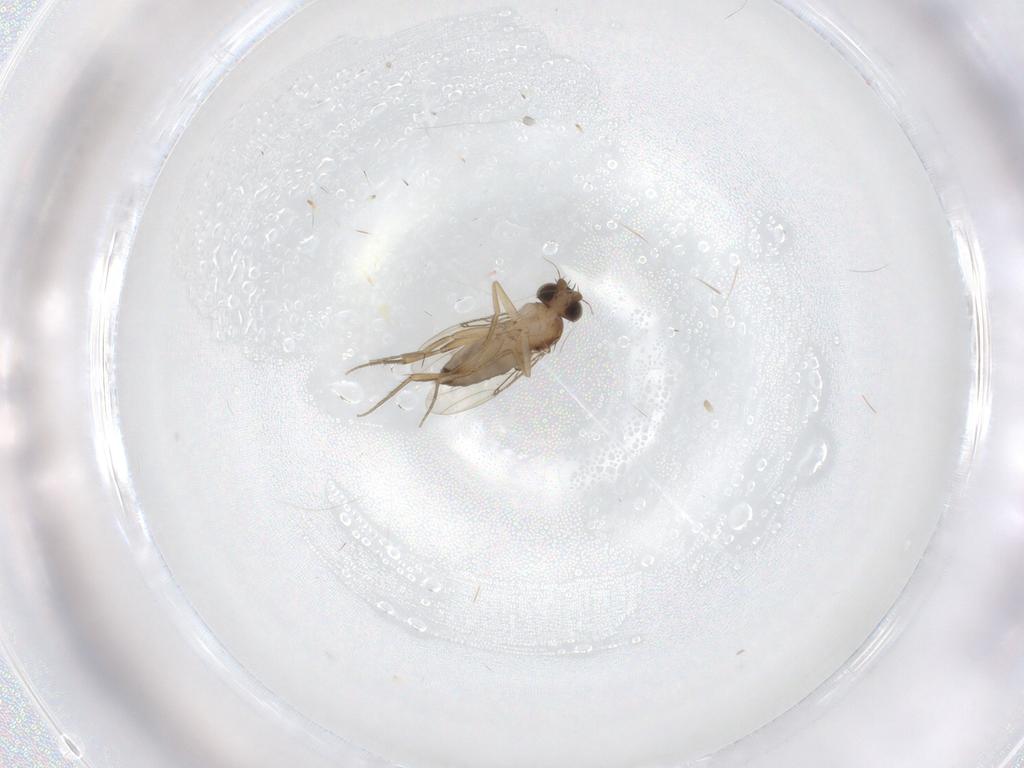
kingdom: Animalia
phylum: Arthropoda
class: Insecta
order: Diptera
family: Phoridae
